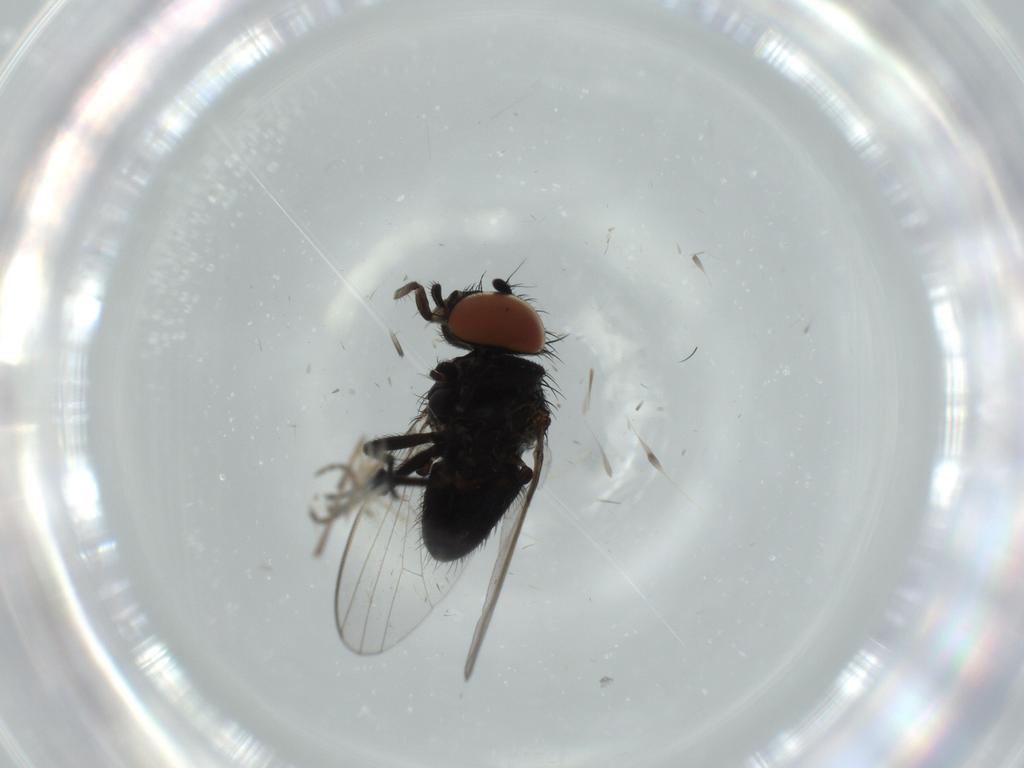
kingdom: Animalia
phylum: Arthropoda
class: Insecta
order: Diptera
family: Milichiidae
